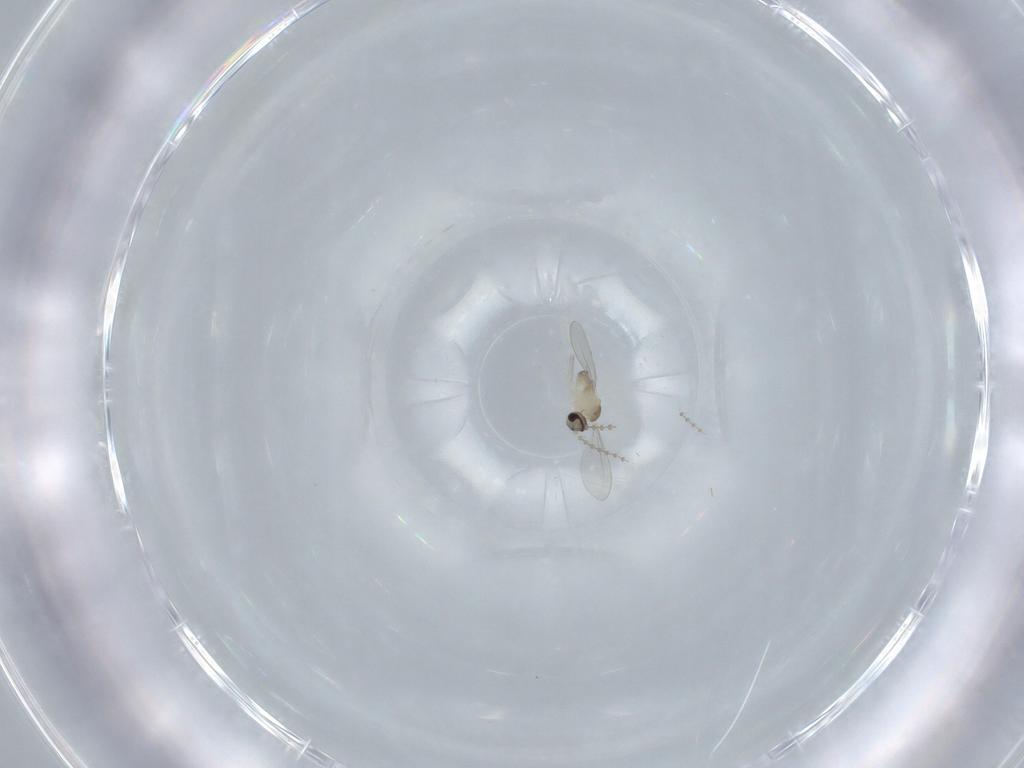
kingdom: Animalia
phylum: Arthropoda
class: Insecta
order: Diptera
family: Cecidomyiidae
